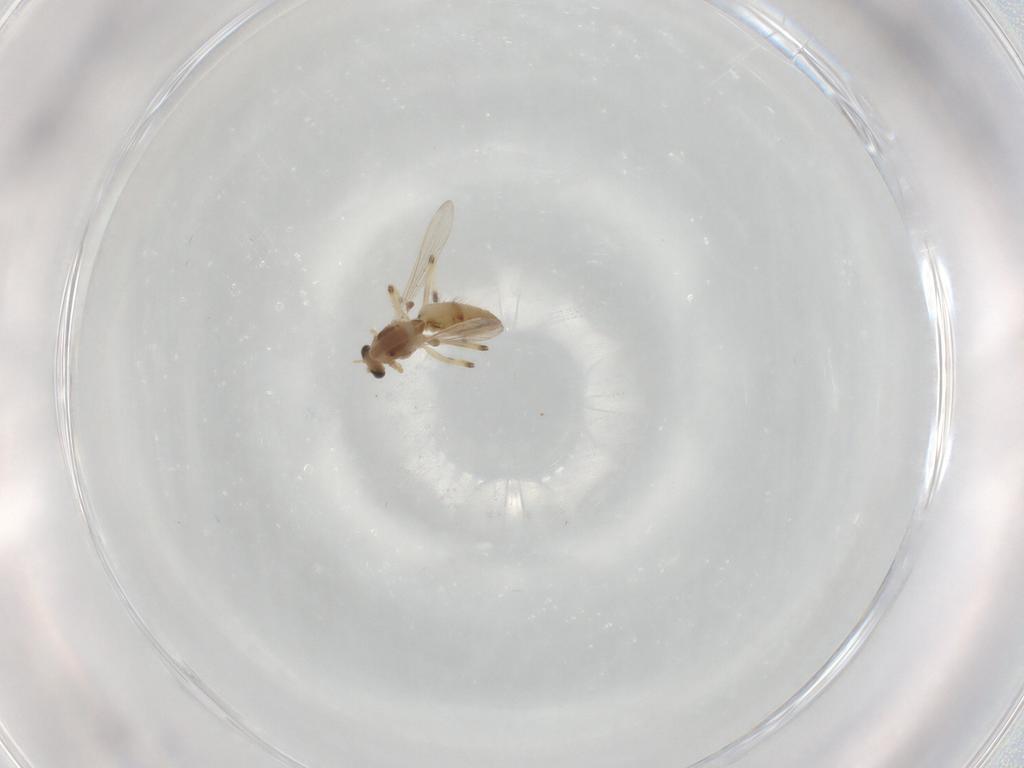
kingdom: Animalia
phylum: Arthropoda
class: Insecta
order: Diptera
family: Chironomidae
